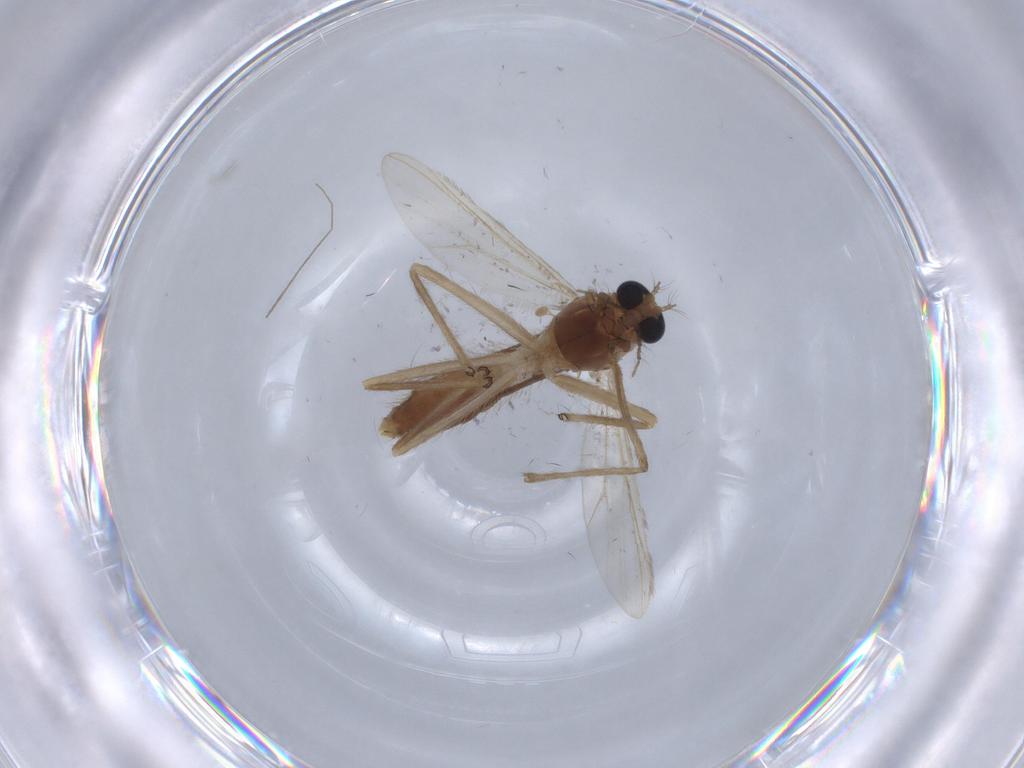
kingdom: Animalia
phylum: Arthropoda
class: Insecta
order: Diptera
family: Chironomidae
